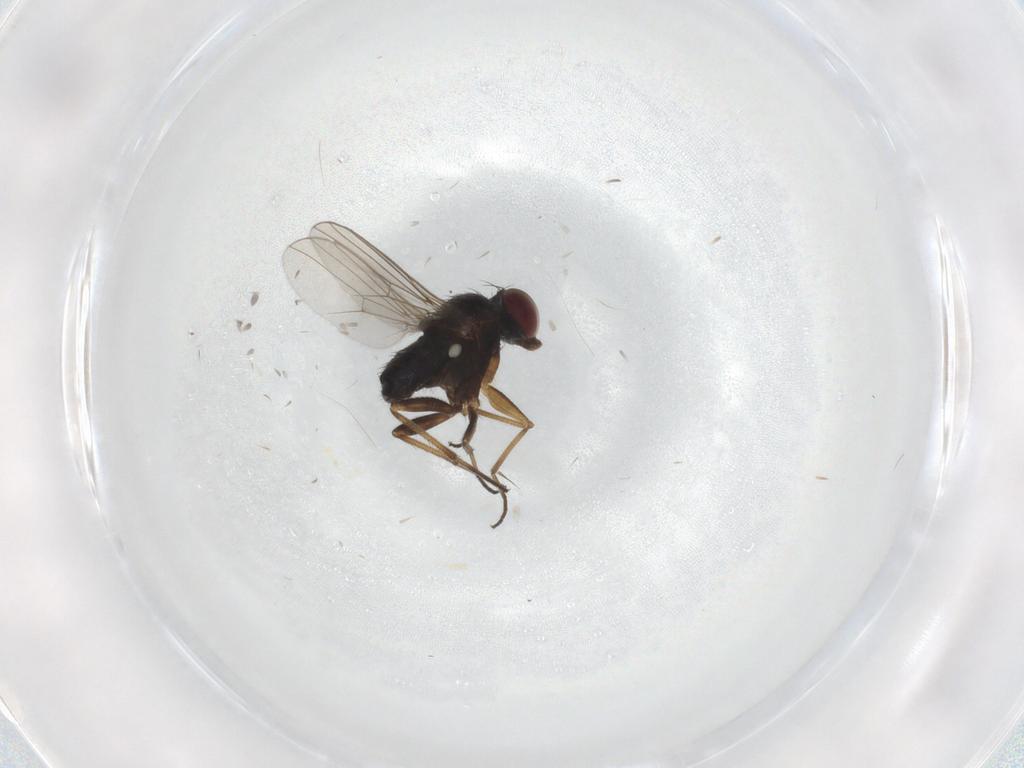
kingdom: Animalia
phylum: Arthropoda
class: Insecta
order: Diptera
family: Dolichopodidae
